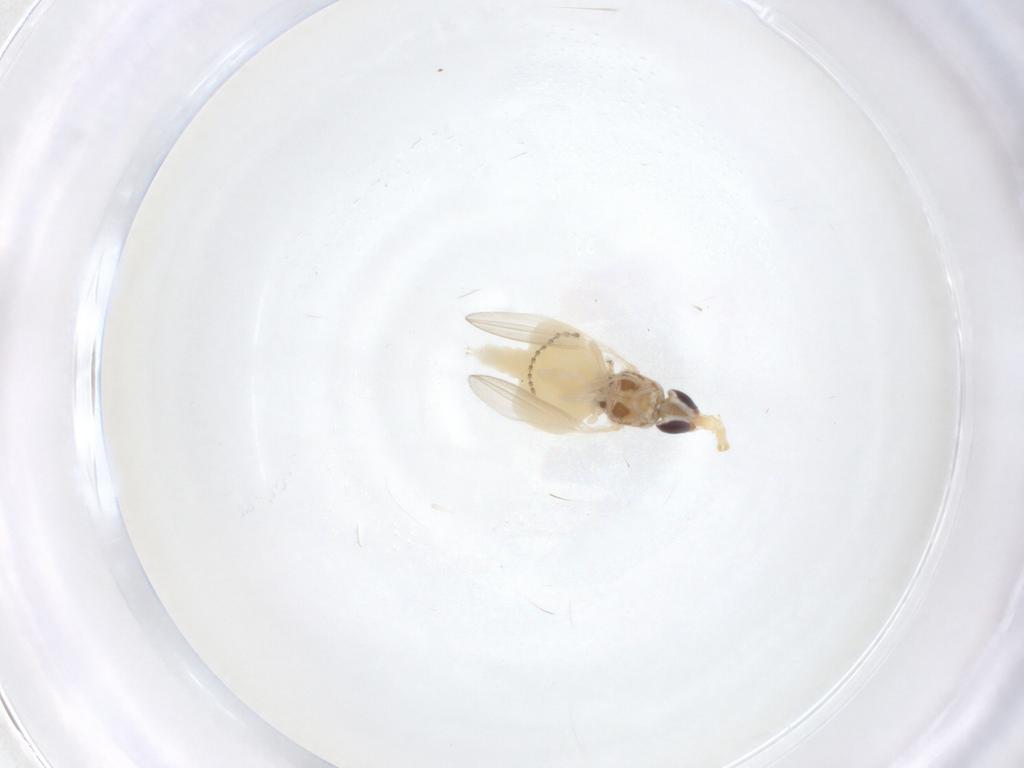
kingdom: Animalia
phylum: Arthropoda
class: Insecta
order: Diptera
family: Chloropidae
